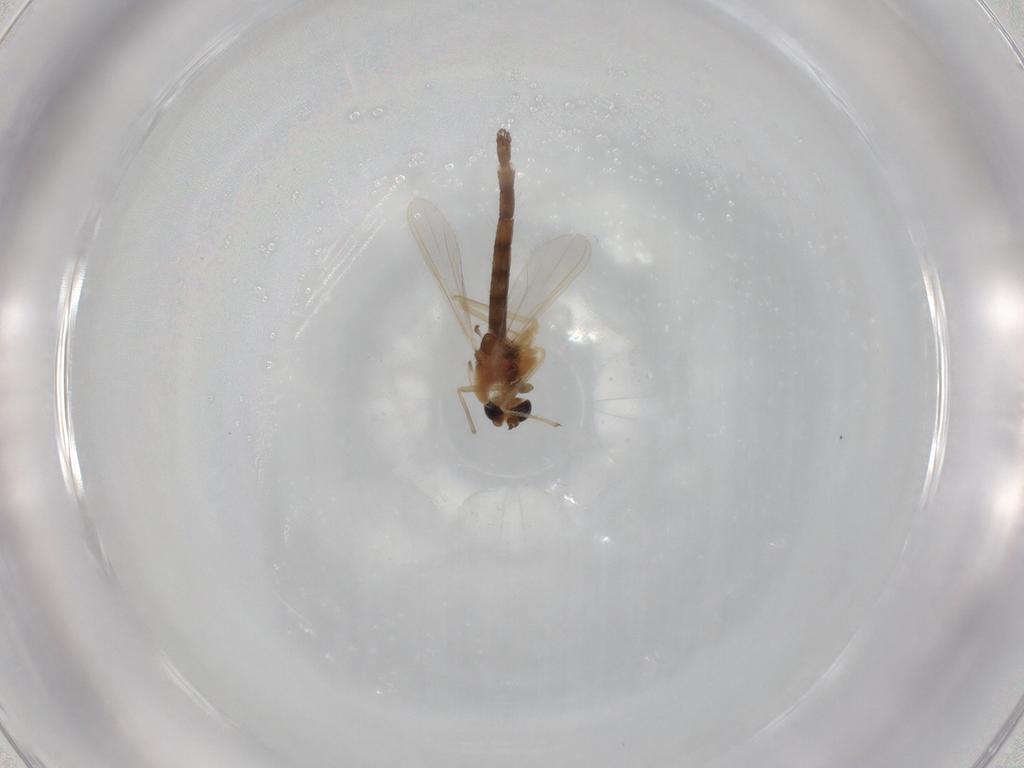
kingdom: Animalia
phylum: Arthropoda
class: Insecta
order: Diptera
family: Chironomidae
